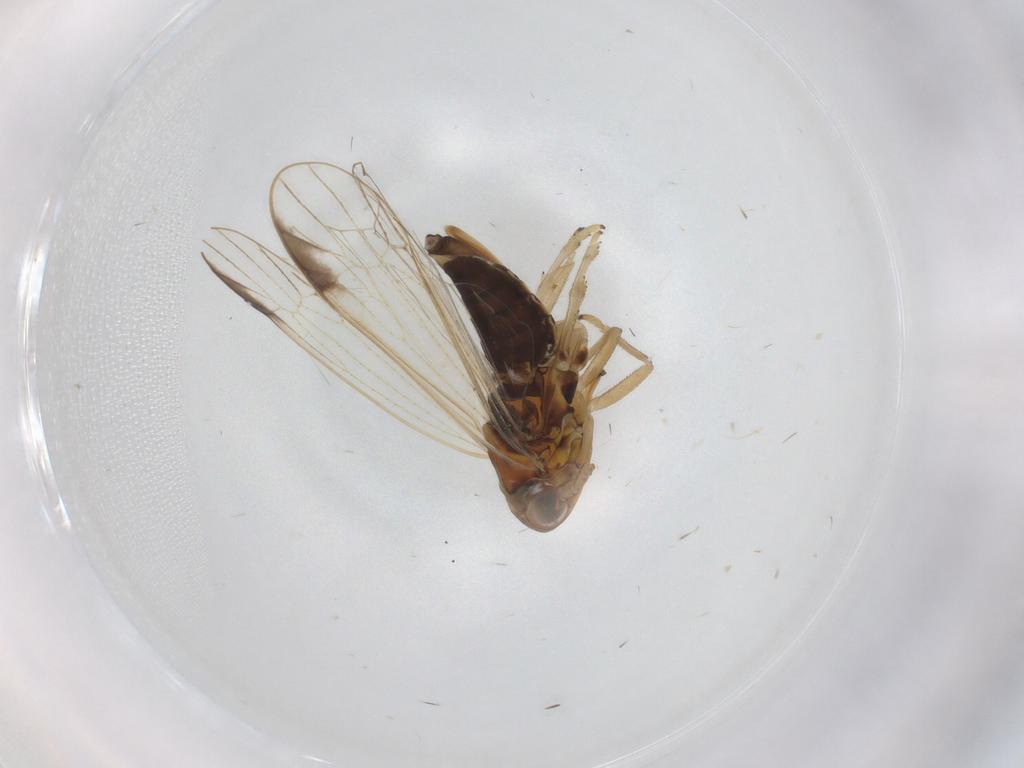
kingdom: Animalia
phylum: Arthropoda
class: Insecta
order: Hemiptera
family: Delphacidae
